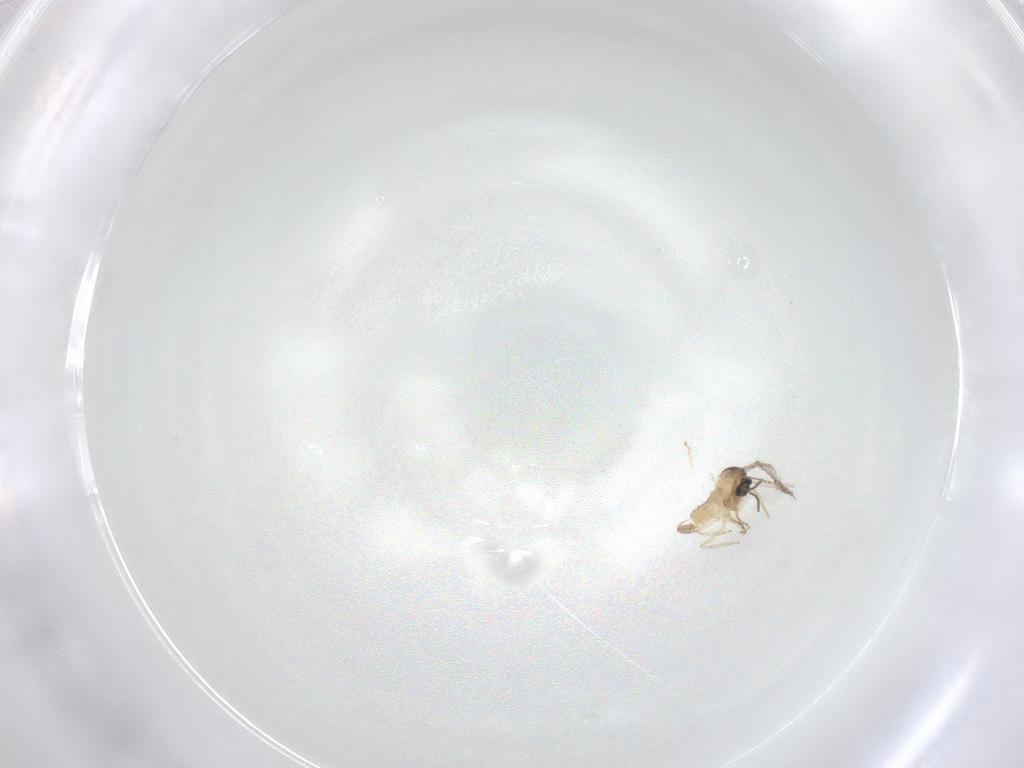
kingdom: Animalia
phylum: Arthropoda
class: Insecta
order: Diptera
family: Cecidomyiidae
